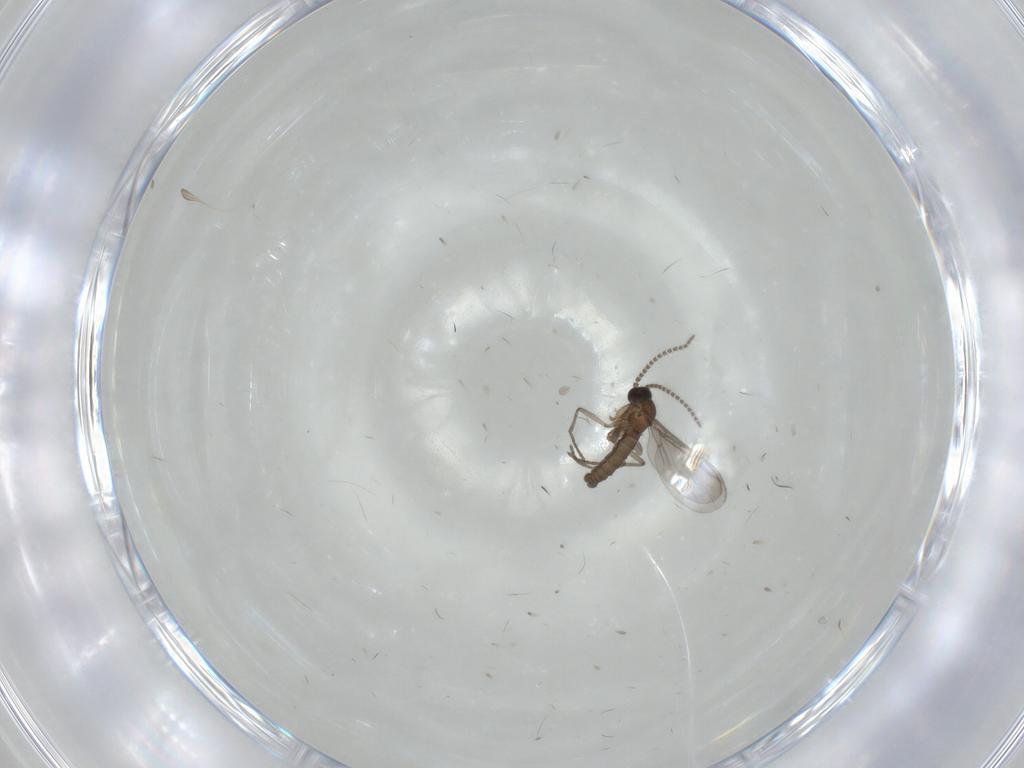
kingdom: Animalia
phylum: Arthropoda
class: Insecta
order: Diptera
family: Sciaridae
